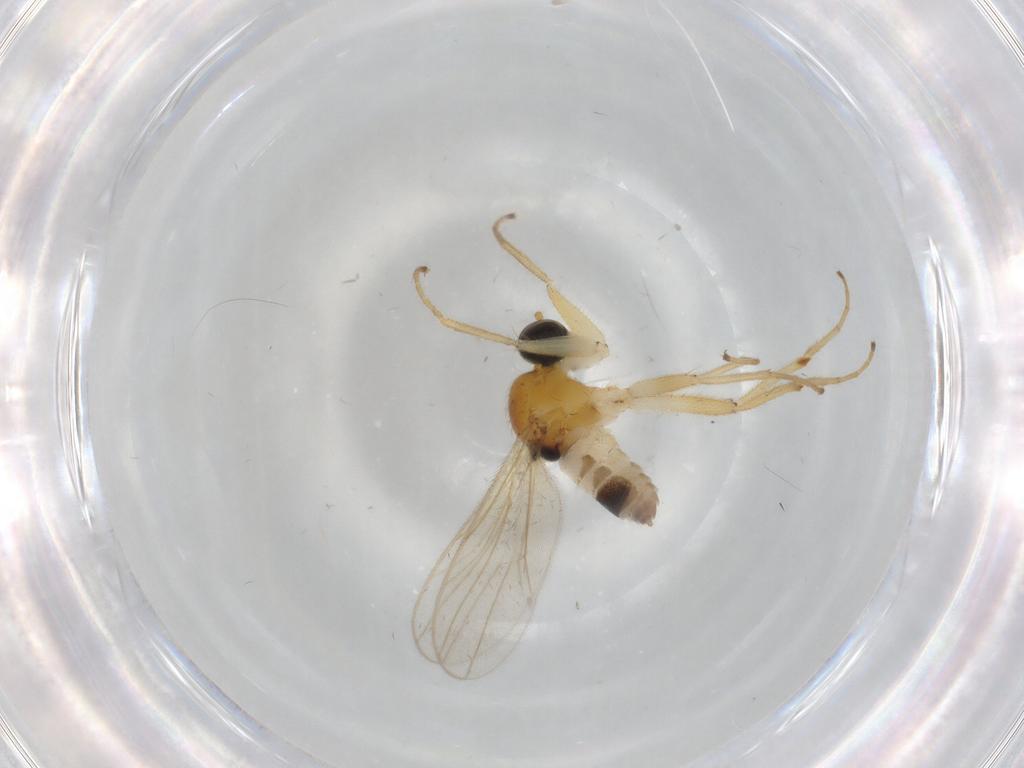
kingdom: Animalia
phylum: Arthropoda
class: Insecta
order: Diptera
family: Hybotidae
